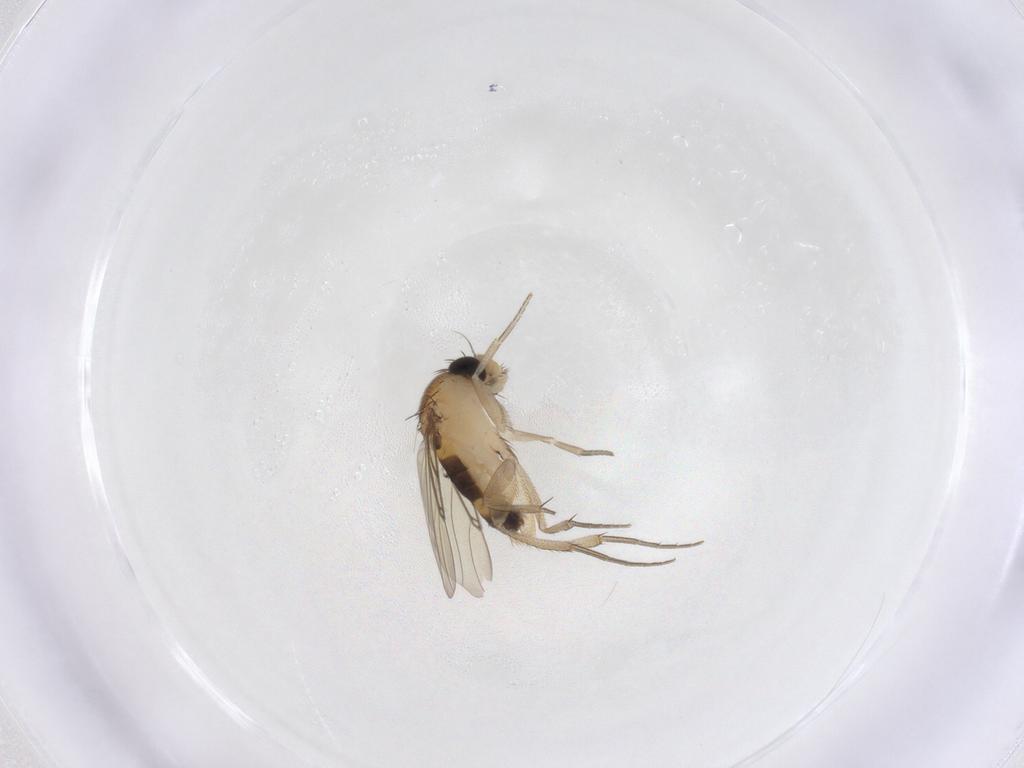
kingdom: Animalia
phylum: Arthropoda
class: Insecta
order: Diptera
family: Phoridae
